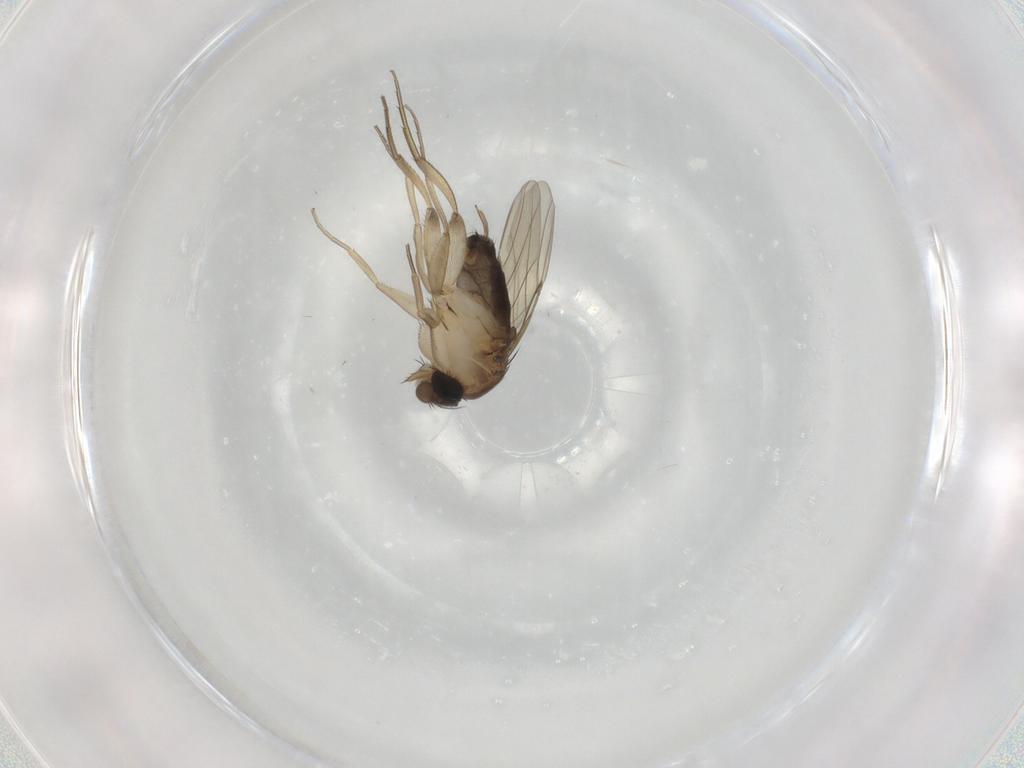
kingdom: Animalia
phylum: Arthropoda
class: Insecta
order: Diptera
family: Phoridae
